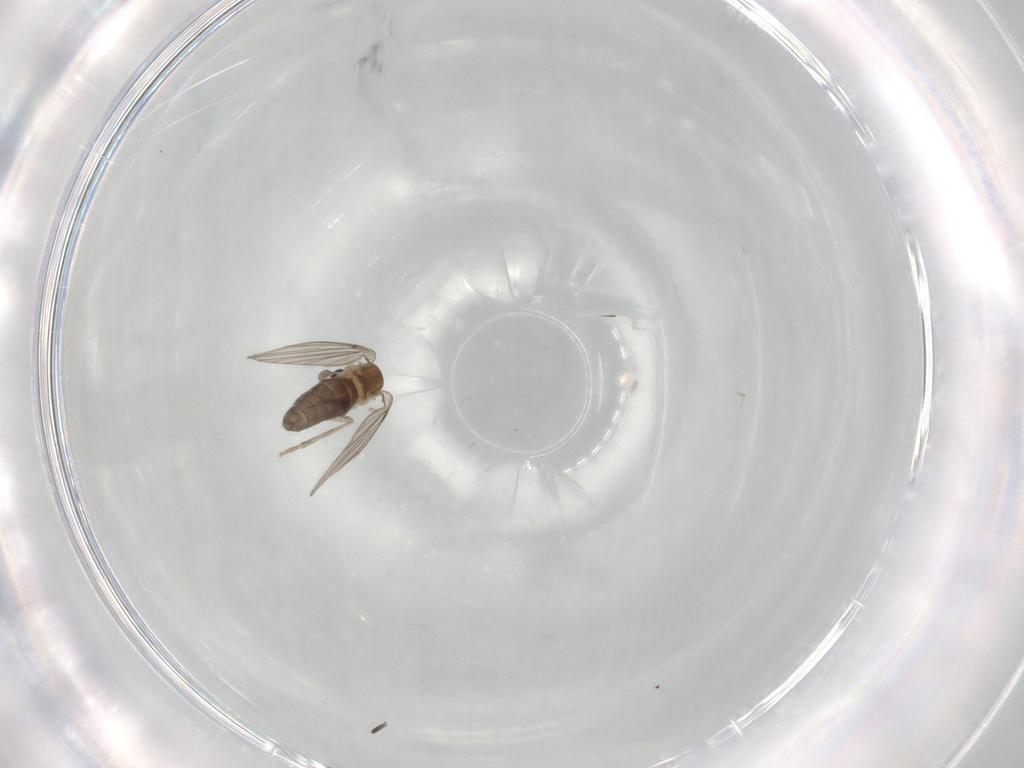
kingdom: Animalia
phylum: Arthropoda
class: Insecta
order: Diptera
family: Phoridae
